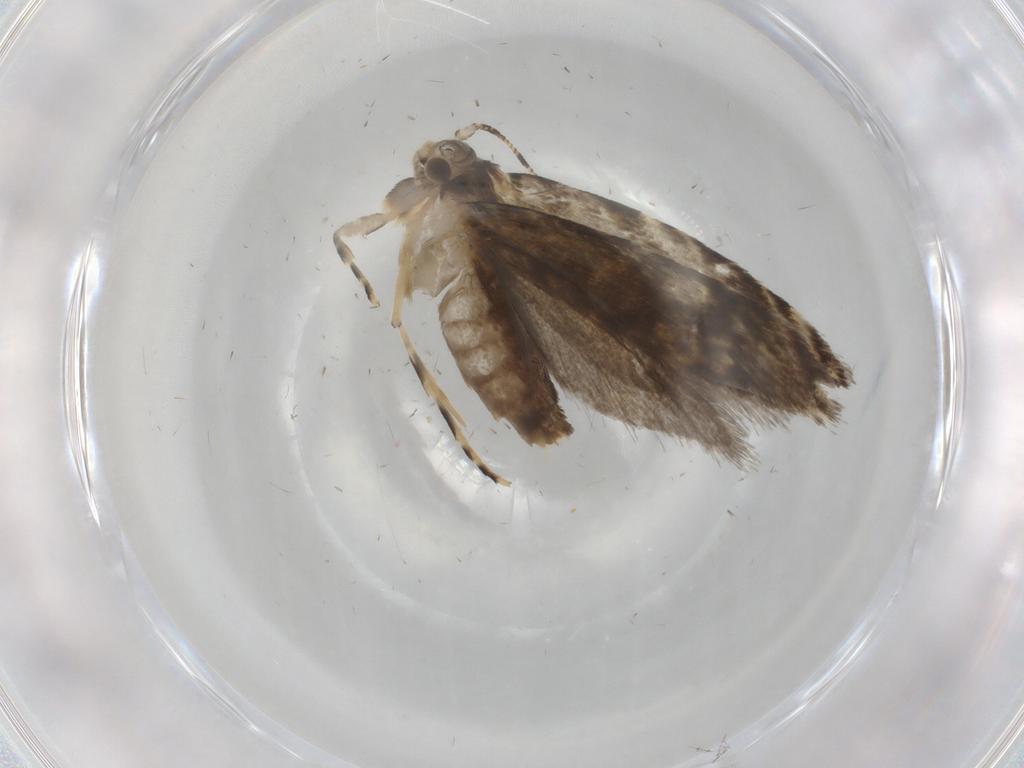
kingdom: Animalia
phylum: Arthropoda
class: Insecta
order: Lepidoptera
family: Tineidae
